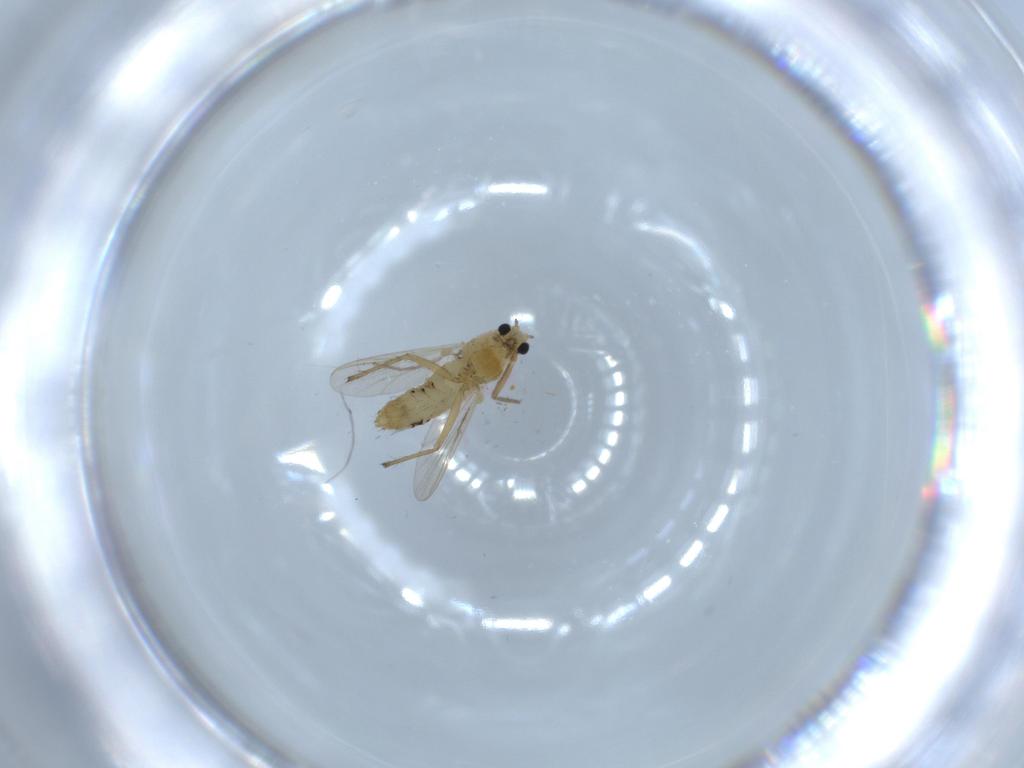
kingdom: Animalia
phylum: Arthropoda
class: Insecta
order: Diptera
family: Chironomidae
